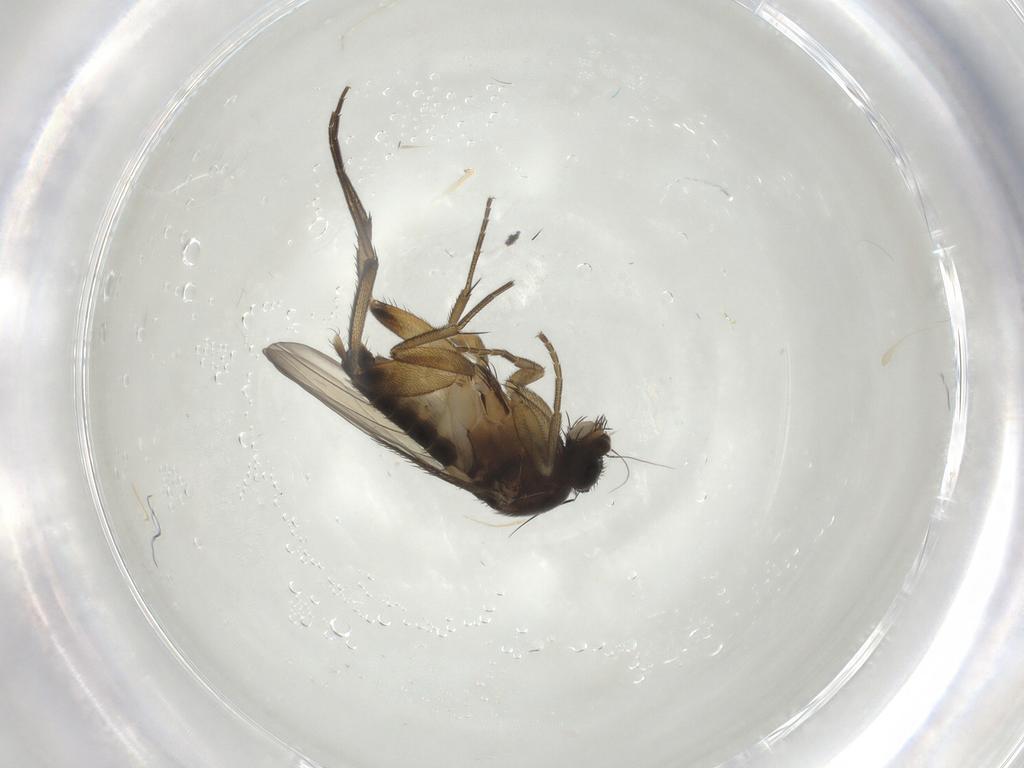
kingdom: Animalia
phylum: Arthropoda
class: Insecta
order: Diptera
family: Phoridae
